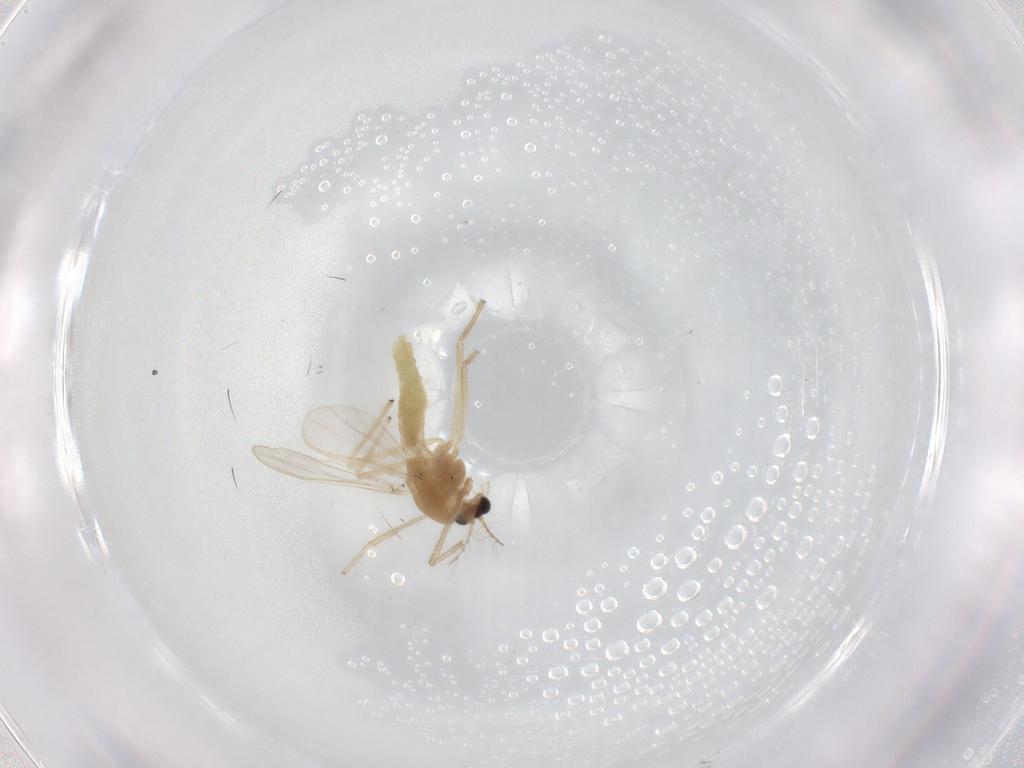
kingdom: Animalia
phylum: Arthropoda
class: Insecta
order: Diptera
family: Chironomidae
